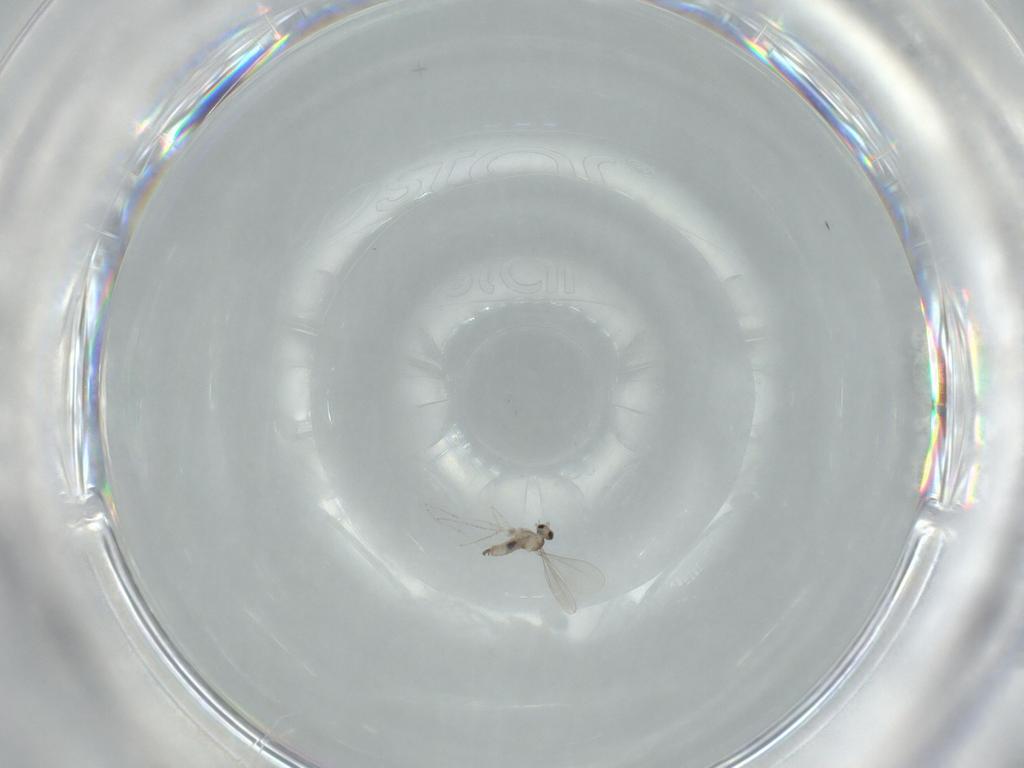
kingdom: Animalia
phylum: Arthropoda
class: Insecta
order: Diptera
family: Cecidomyiidae
